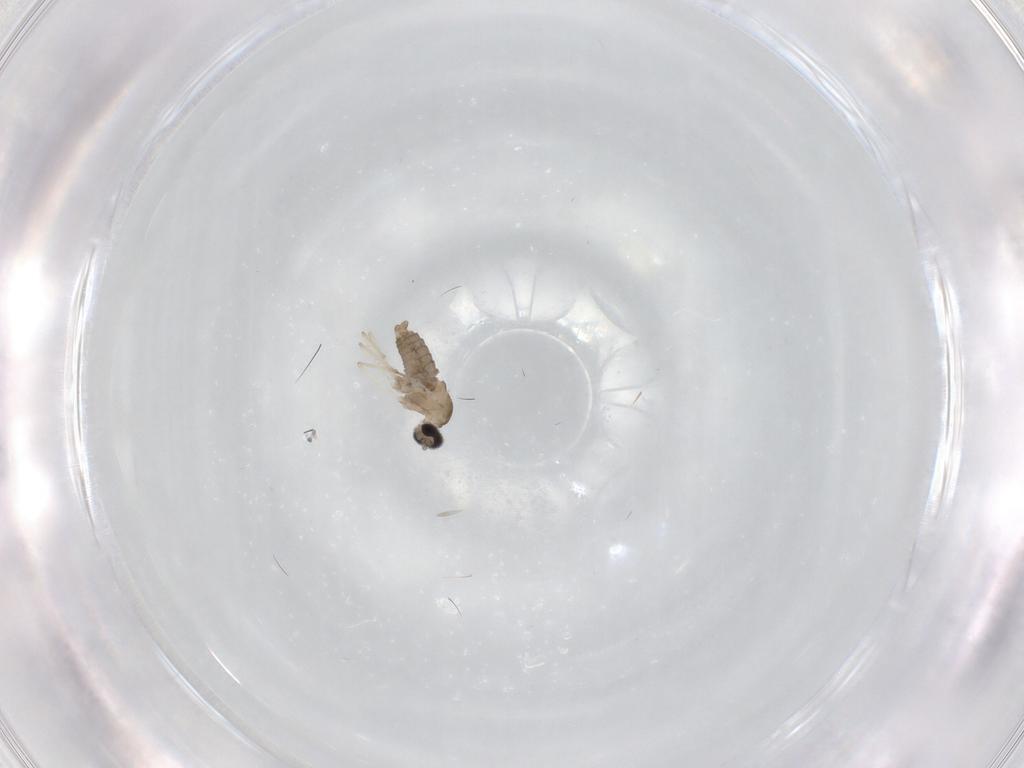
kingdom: Animalia
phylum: Arthropoda
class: Insecta
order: Diptera
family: Cecidomyiidae
